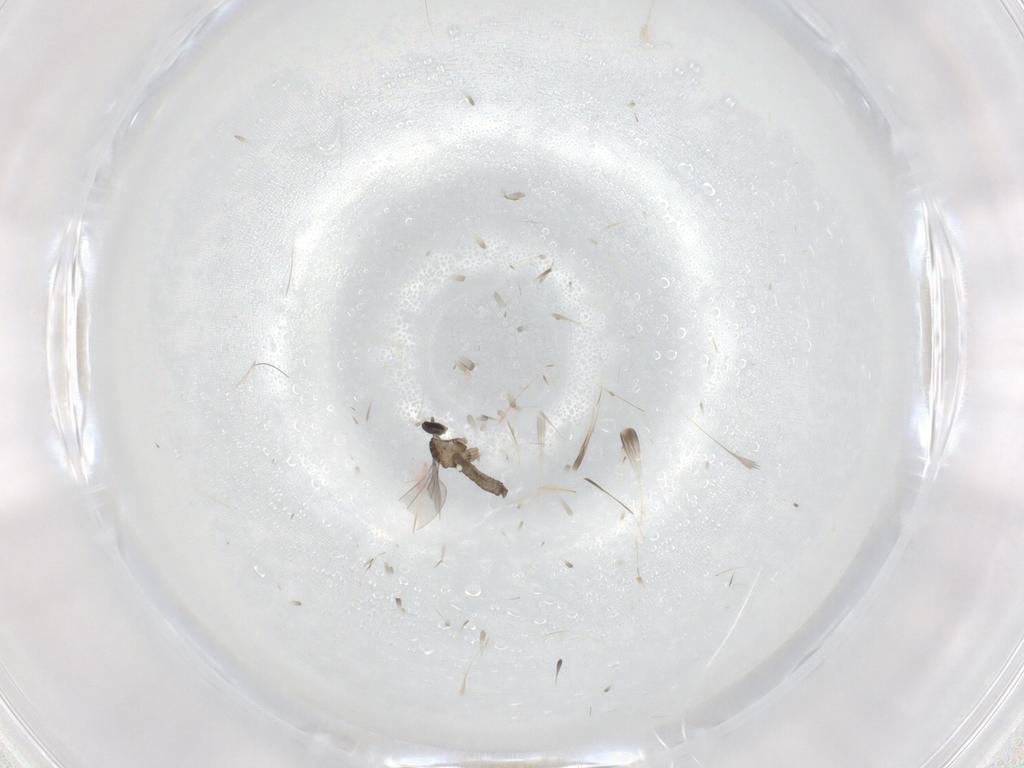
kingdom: Animalia
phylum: Arthropoda
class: Insecta
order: Diptera
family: Cecidomyiidae
